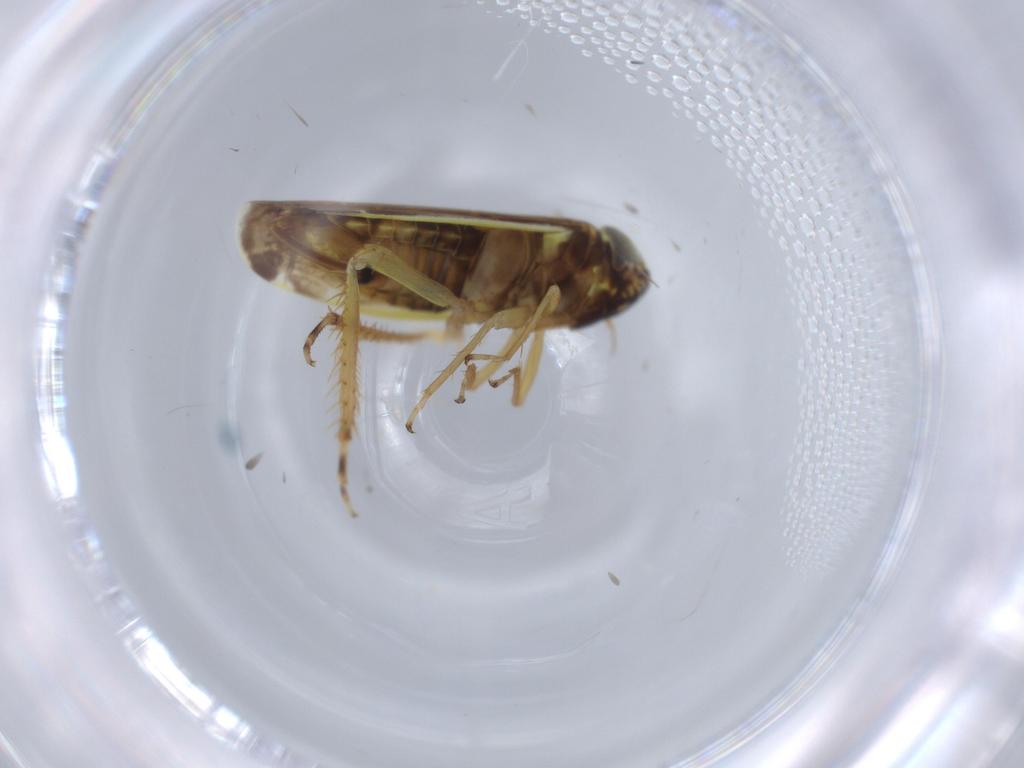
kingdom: Animalia
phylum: Arthropoda
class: Insecta
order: Hemiptera
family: Cicadellidae
